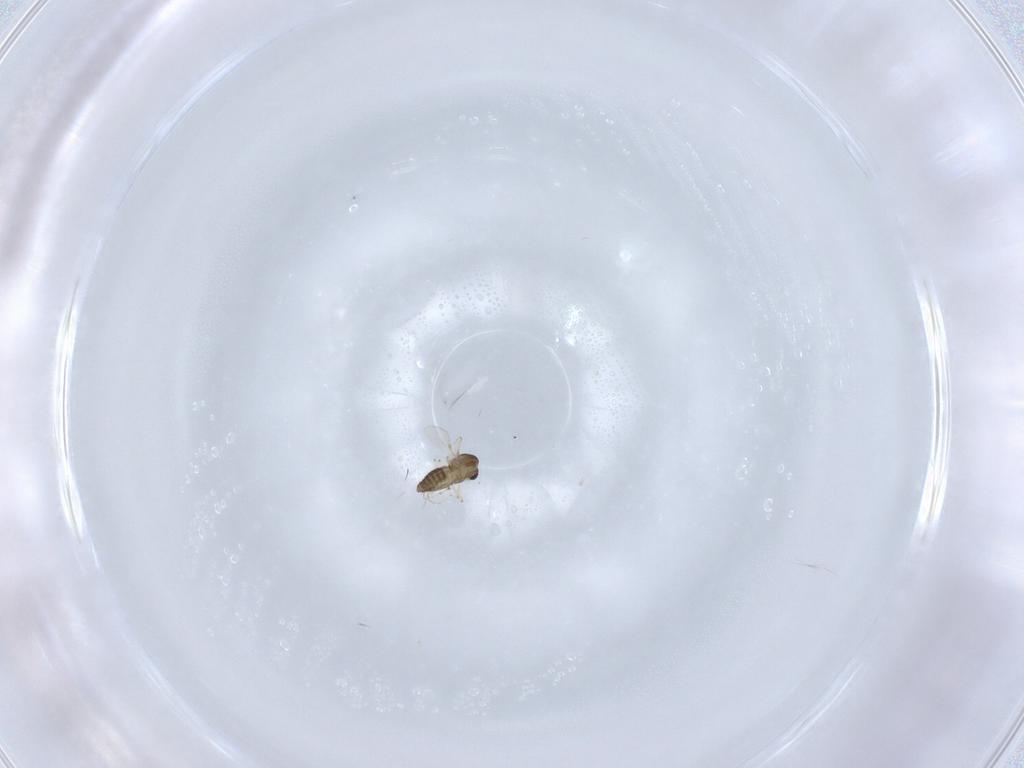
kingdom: Animalia
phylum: Arthropoda
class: Insecta
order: Diptera
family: Chironomidae
